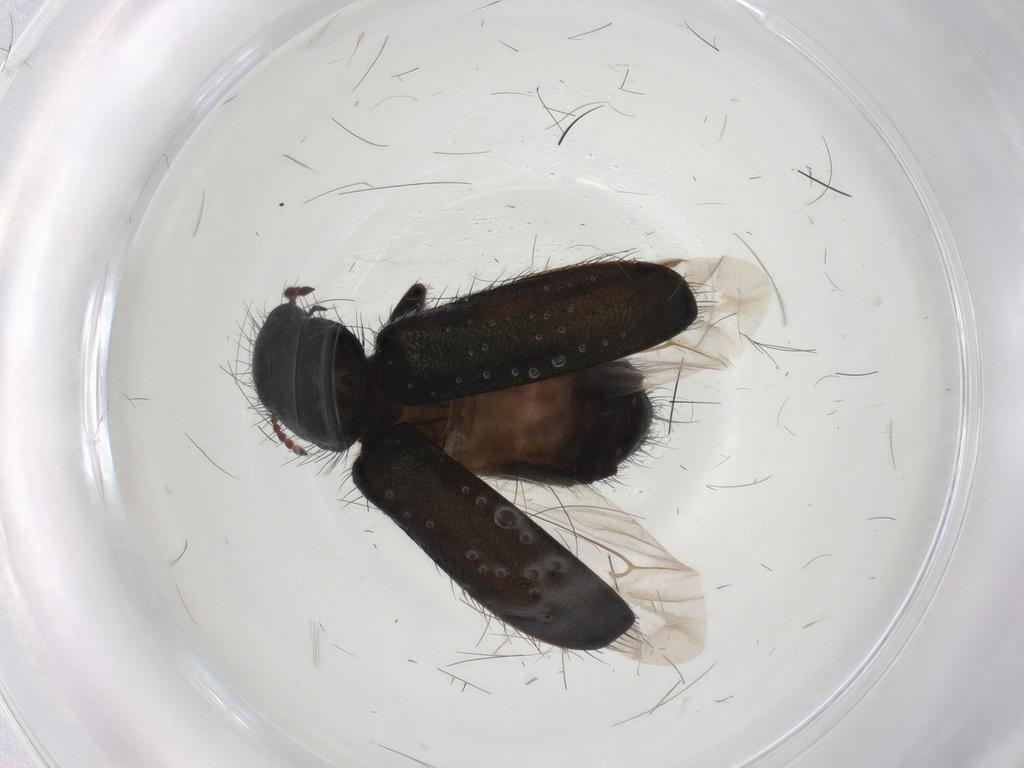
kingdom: Animalia
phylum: Arthropoda
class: Insecta
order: Coleoptera
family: Melyridae
